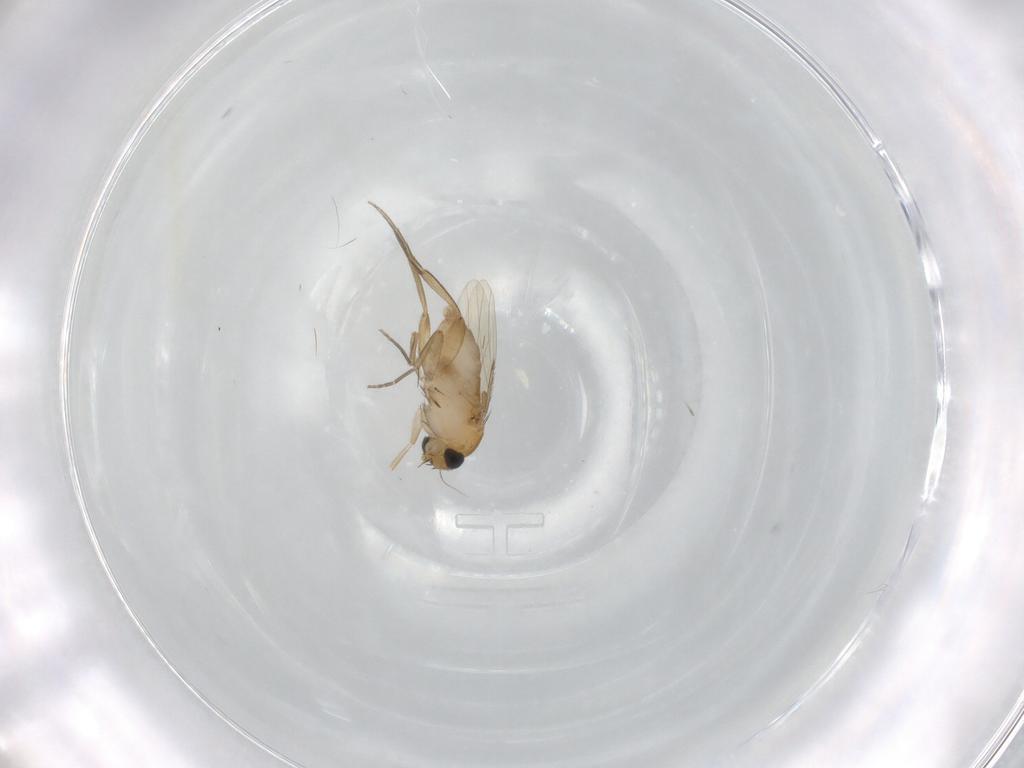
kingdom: Animalia
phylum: Arthropoda
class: Insecta
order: Diptera
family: Phoridae
